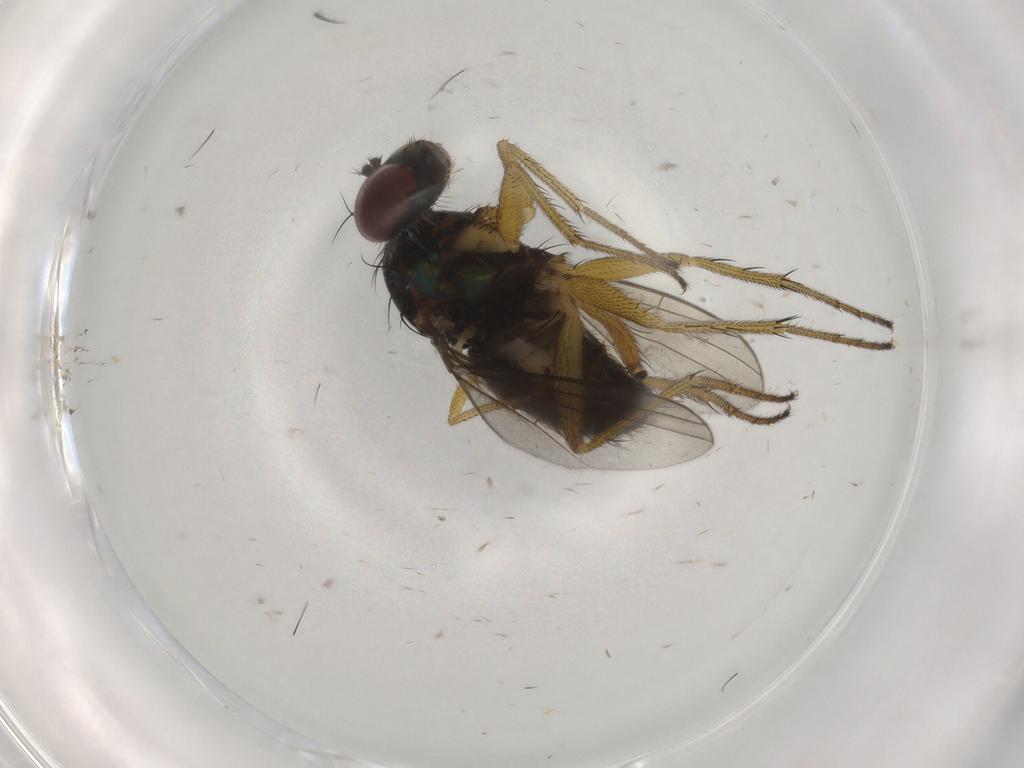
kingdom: Animalia
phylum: Arthropoda
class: Insecta
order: Diptera
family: Dolichopodidae
